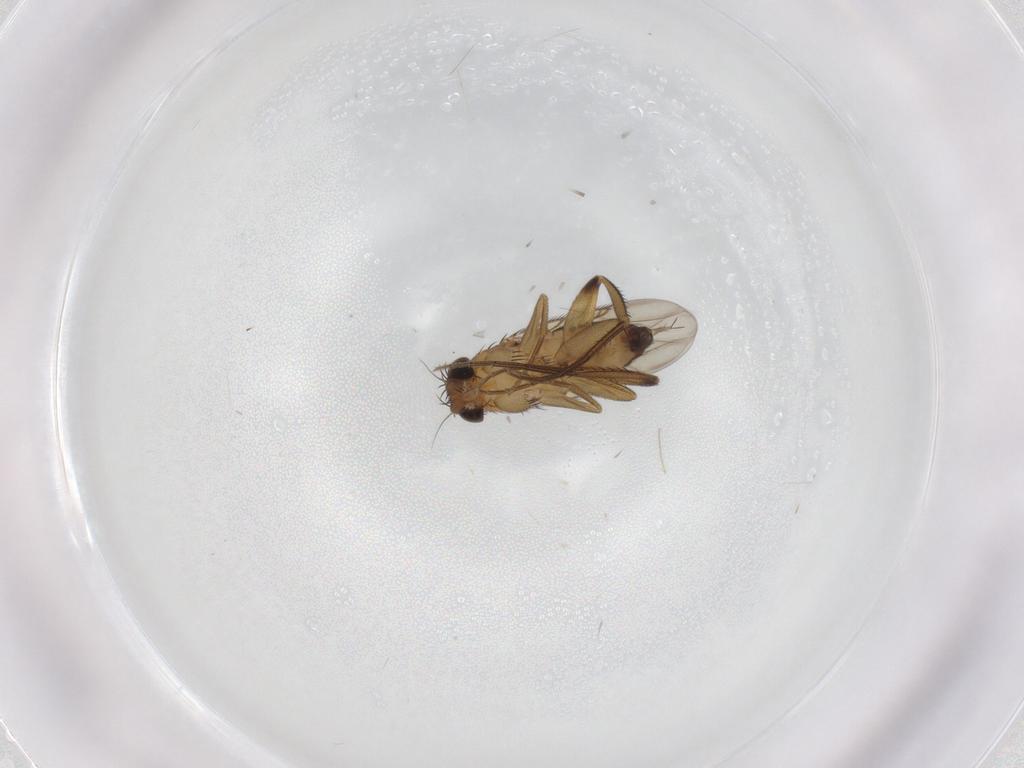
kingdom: Animalia
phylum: Arthropoda
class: Insecta
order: Diptera
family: Phoridae
